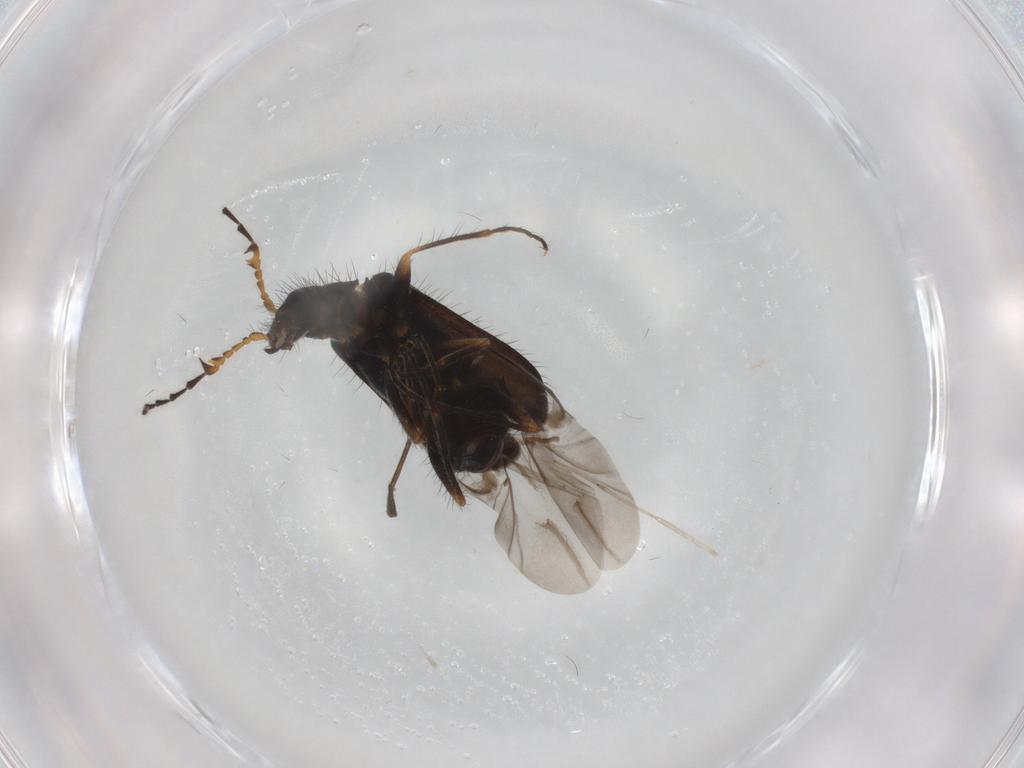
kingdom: Animalia
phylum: Arthropoda
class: Insecta
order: Coleoptera
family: Melyridae
